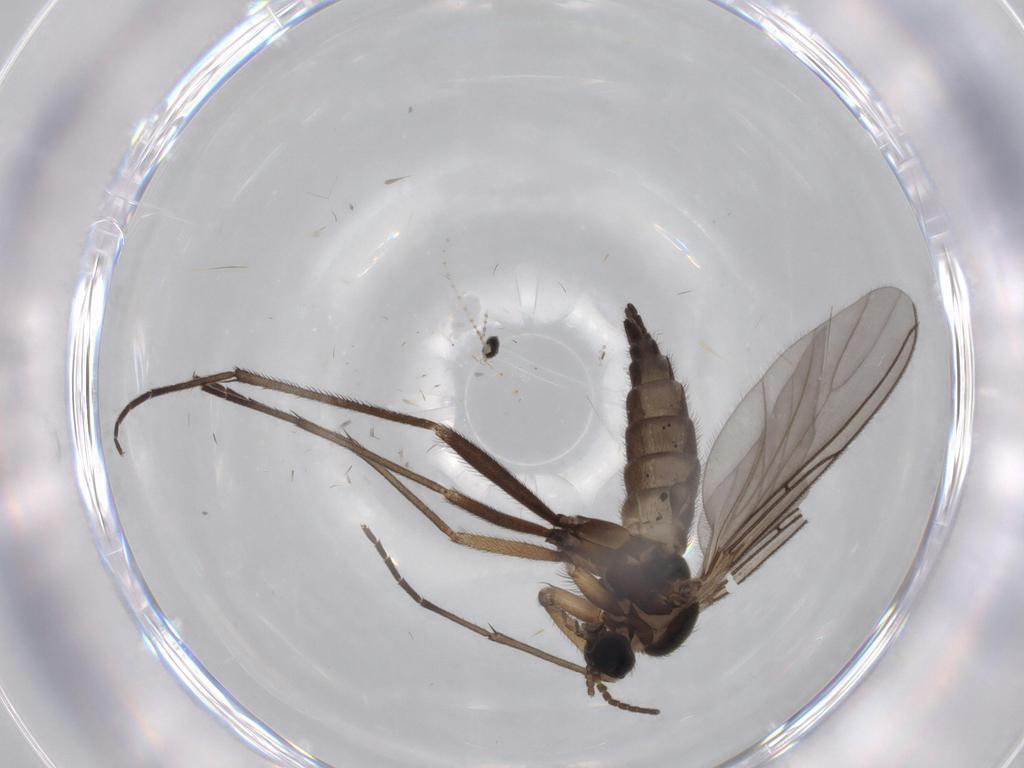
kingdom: Animalia
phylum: Arthropoda
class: Insecta
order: Diptera
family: Sciaridae
